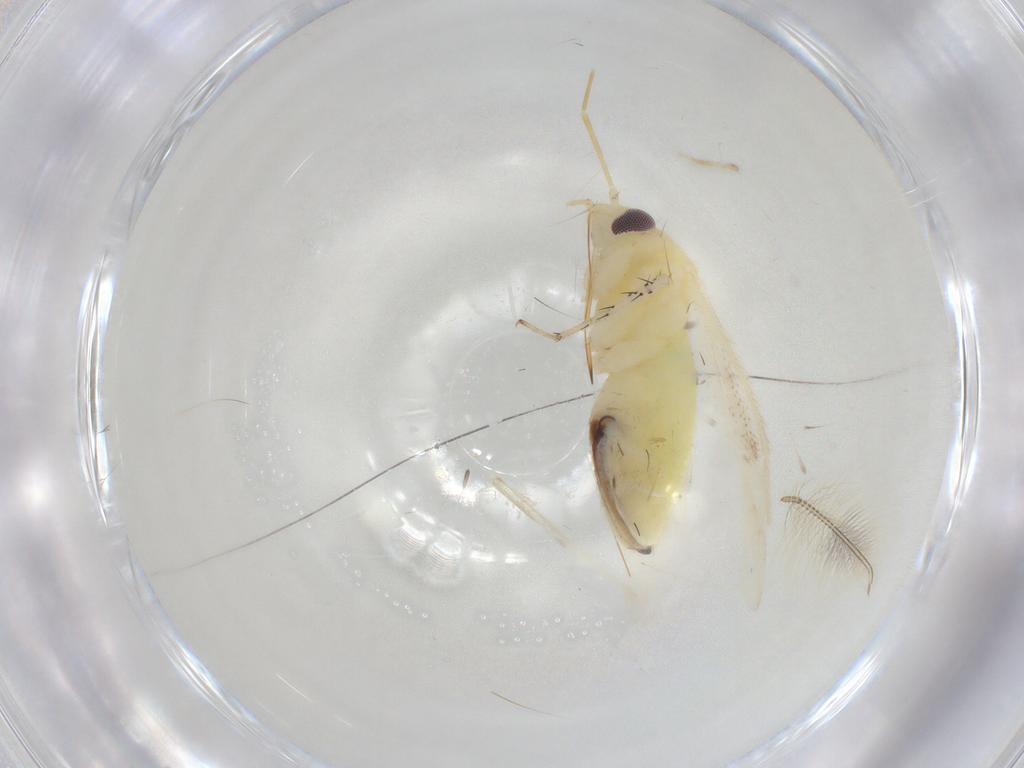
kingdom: Animalia
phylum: Arthropoda
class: Insecta
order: Hemiptera
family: Miridae
